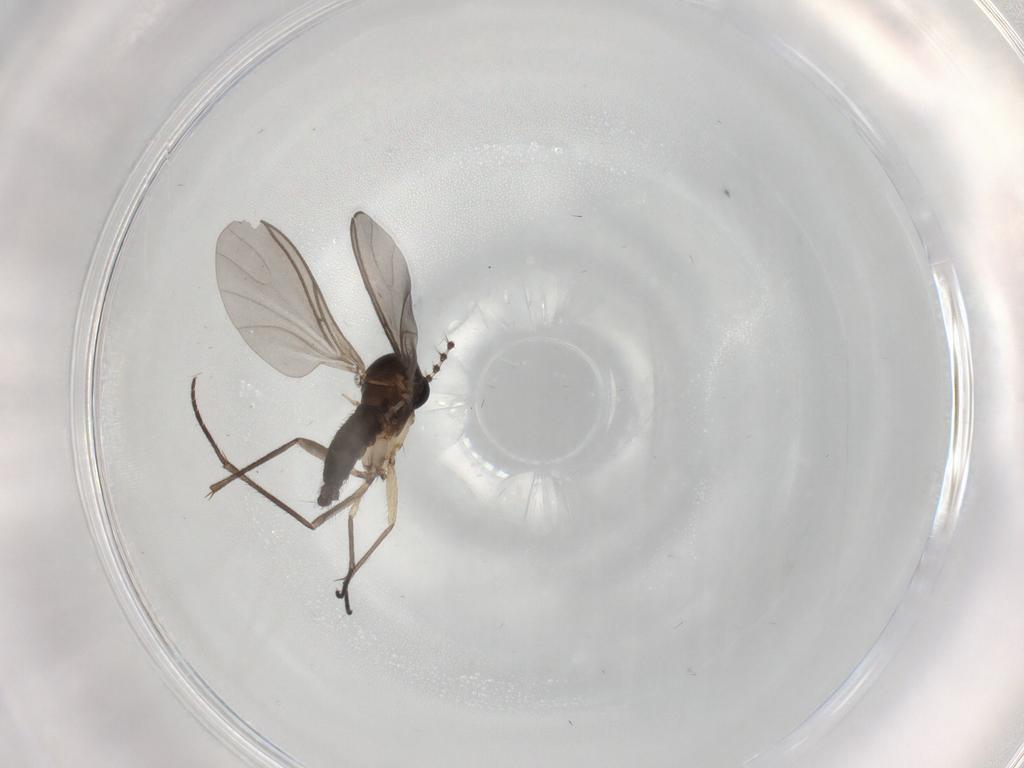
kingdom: Animalia
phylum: Arthropoda
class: Insecta
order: Diptera
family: Sciaridae
